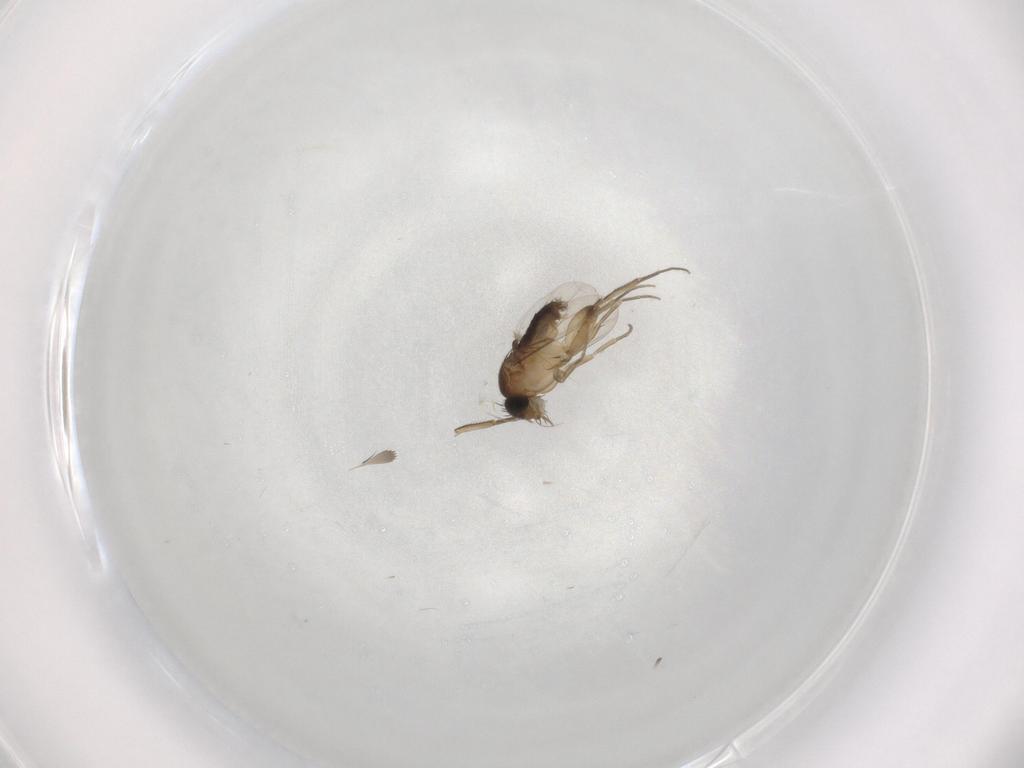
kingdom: Animalia
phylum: Arthropoda
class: Insecta
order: Diptera
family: Phoridae
